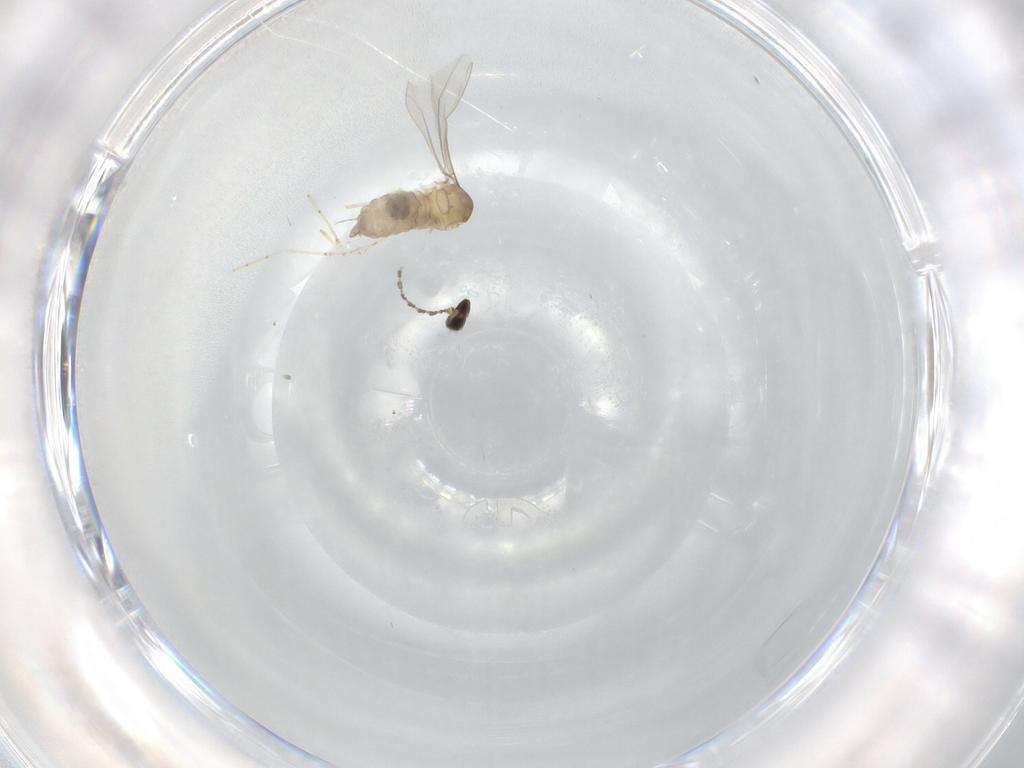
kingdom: Animalia
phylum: Arthropoda
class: Insecta
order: Diptera
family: Cecidomyiidae
